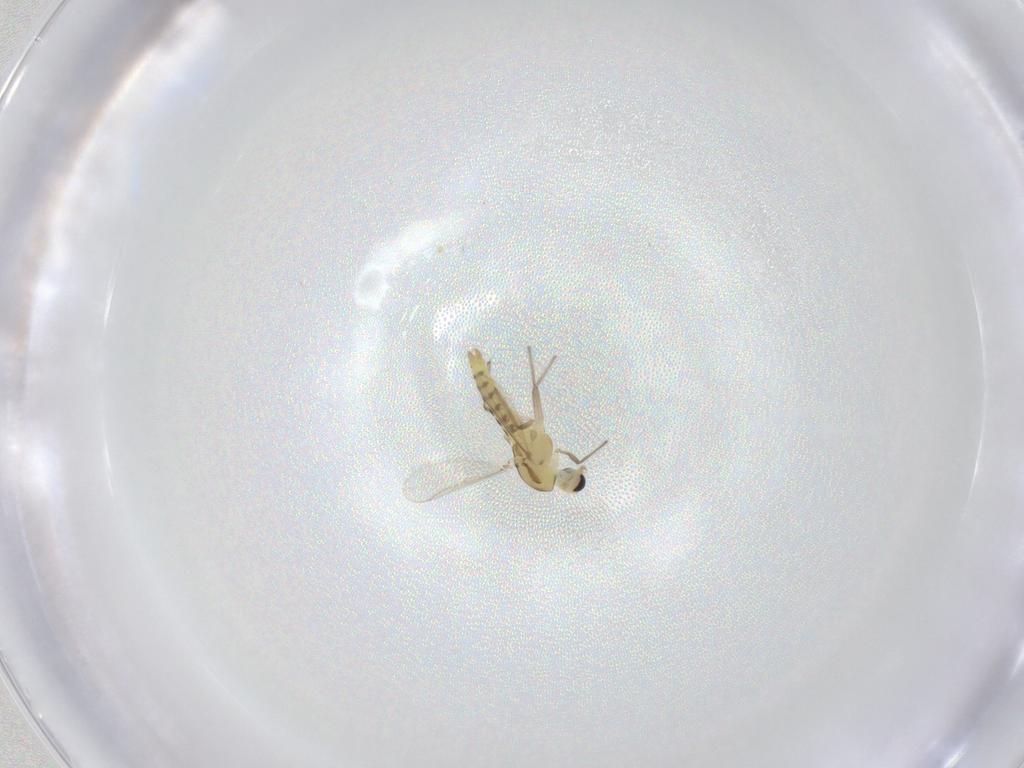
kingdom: Animalia
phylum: Arthropoda
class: Insecta
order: Diptera
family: Chironomidae
